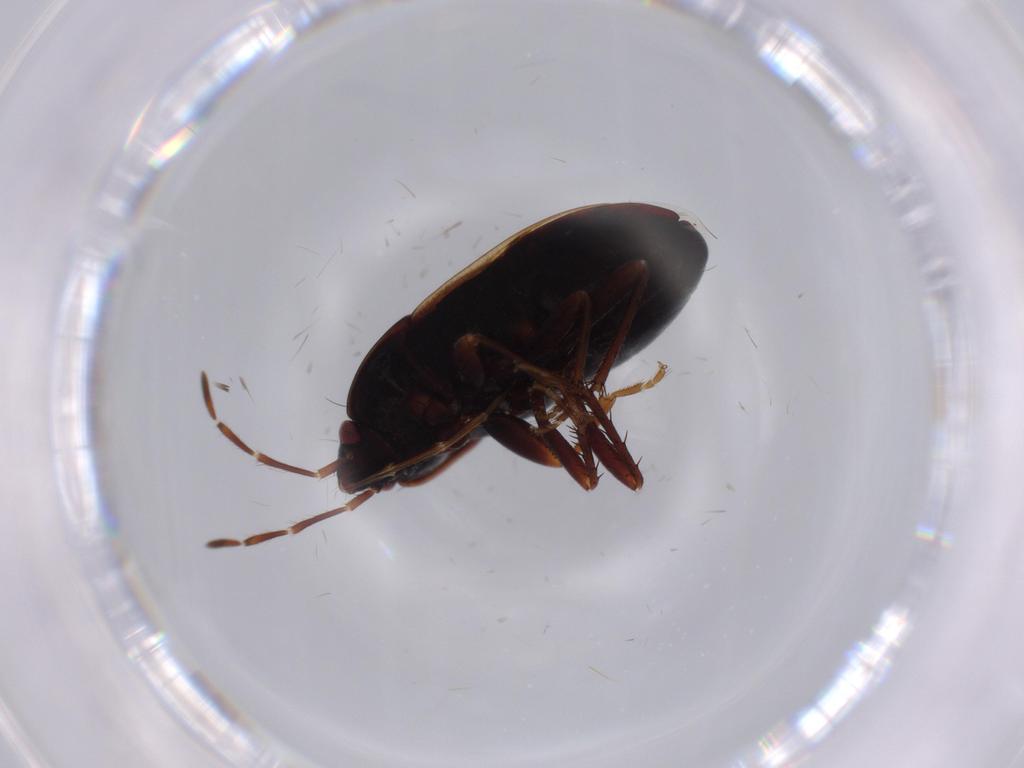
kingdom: Animalia
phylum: Arthropoda
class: Insecta
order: Hemiptera
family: Rhyparochromidae
